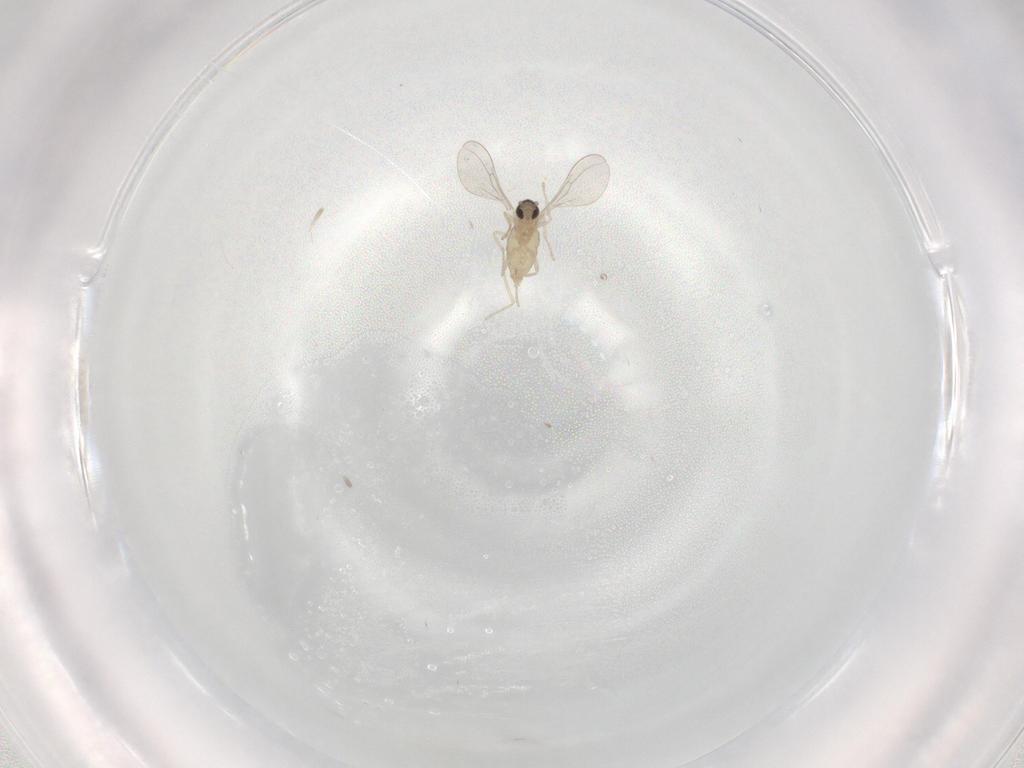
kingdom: Animalia
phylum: Arthropoda
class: Insecta
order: Diptera
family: Cecidomyiidae
